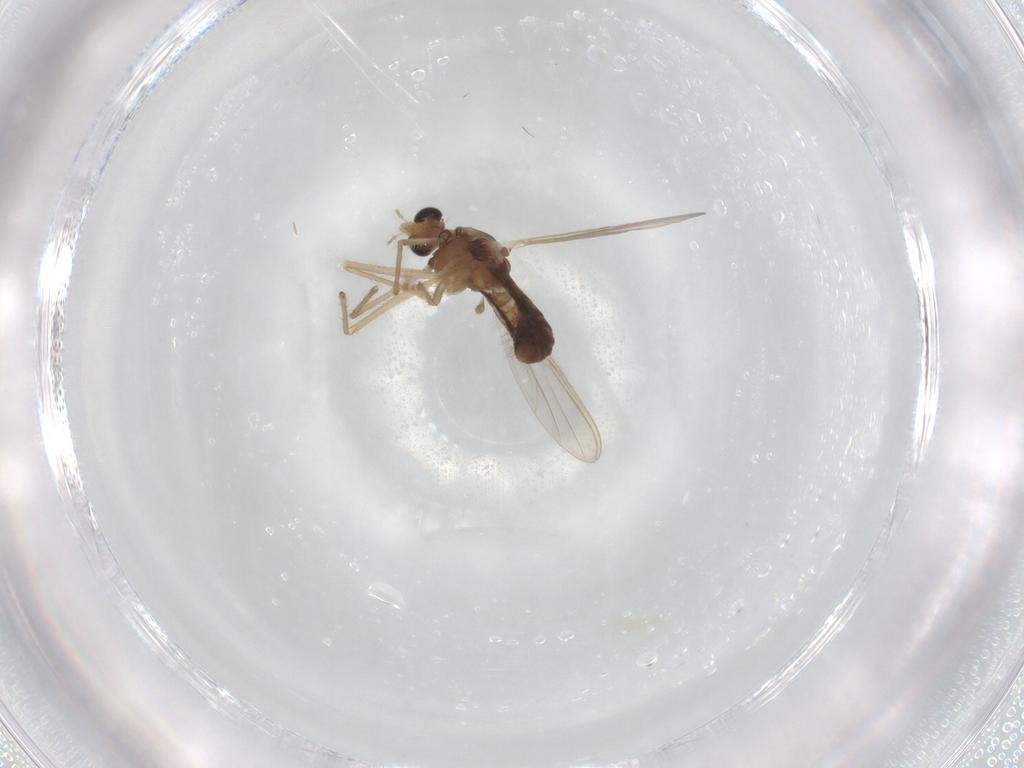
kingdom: Animalia
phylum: Arthropoda
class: Insecta
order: Diptera
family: Chironomidae
